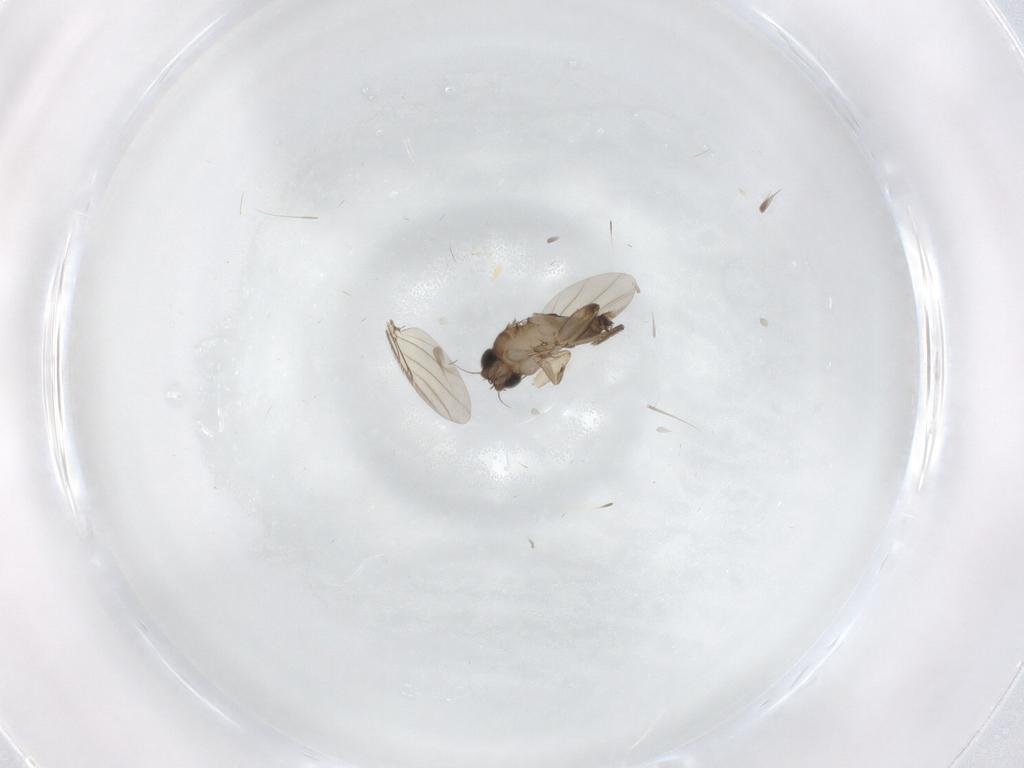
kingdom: Animalia
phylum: Arthropoda
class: Insecta
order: Diptera
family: Phoridae
